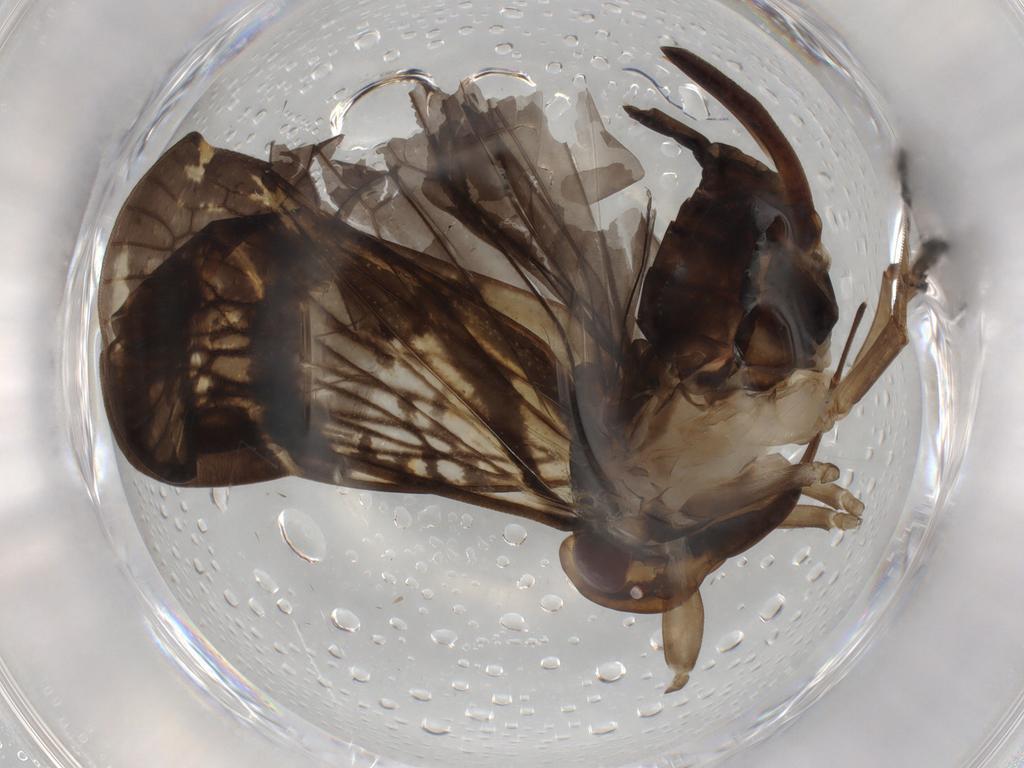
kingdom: Animalia
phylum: Arthropoda
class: Insecta
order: Hemiptera
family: Cixiidae
